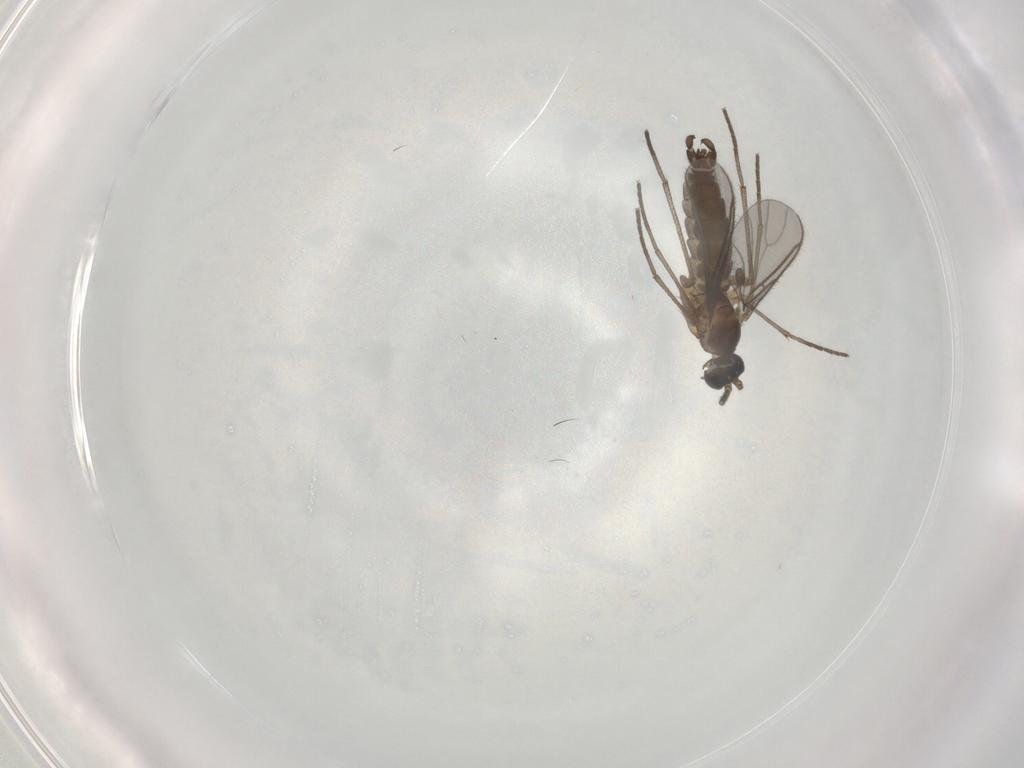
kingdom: Animalia
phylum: Arthropoda
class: Insecta
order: Diptera
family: Sciaridae
